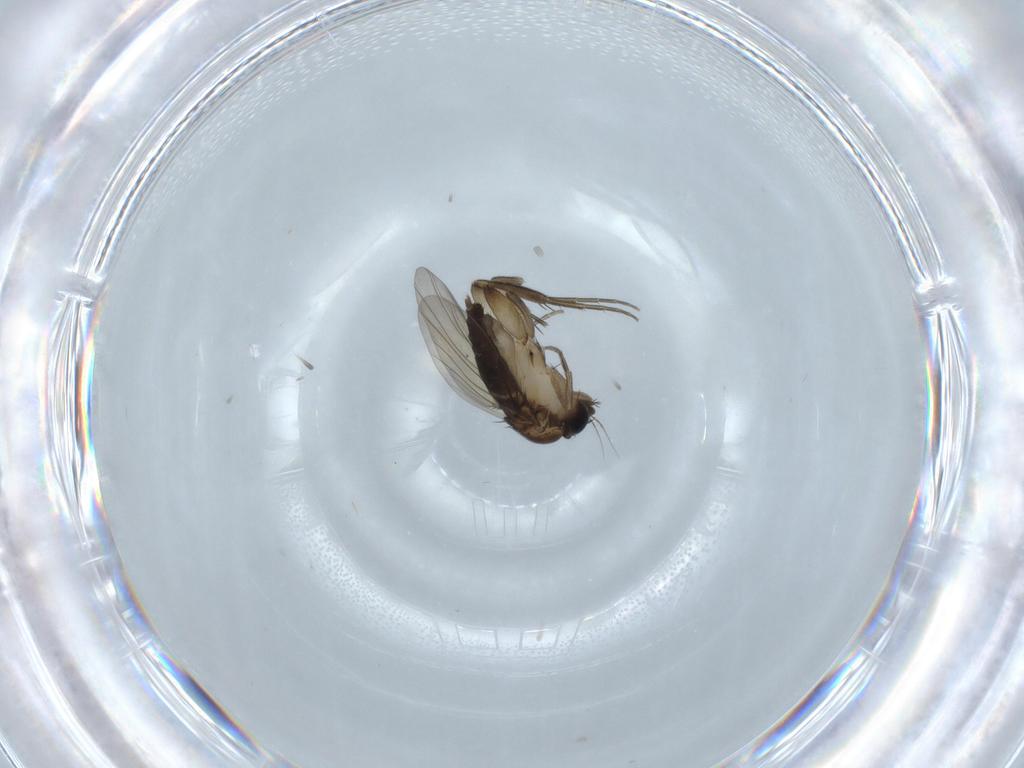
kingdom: Animalia
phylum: Arthropoda
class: Insecta
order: Diptera
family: Phoridae
